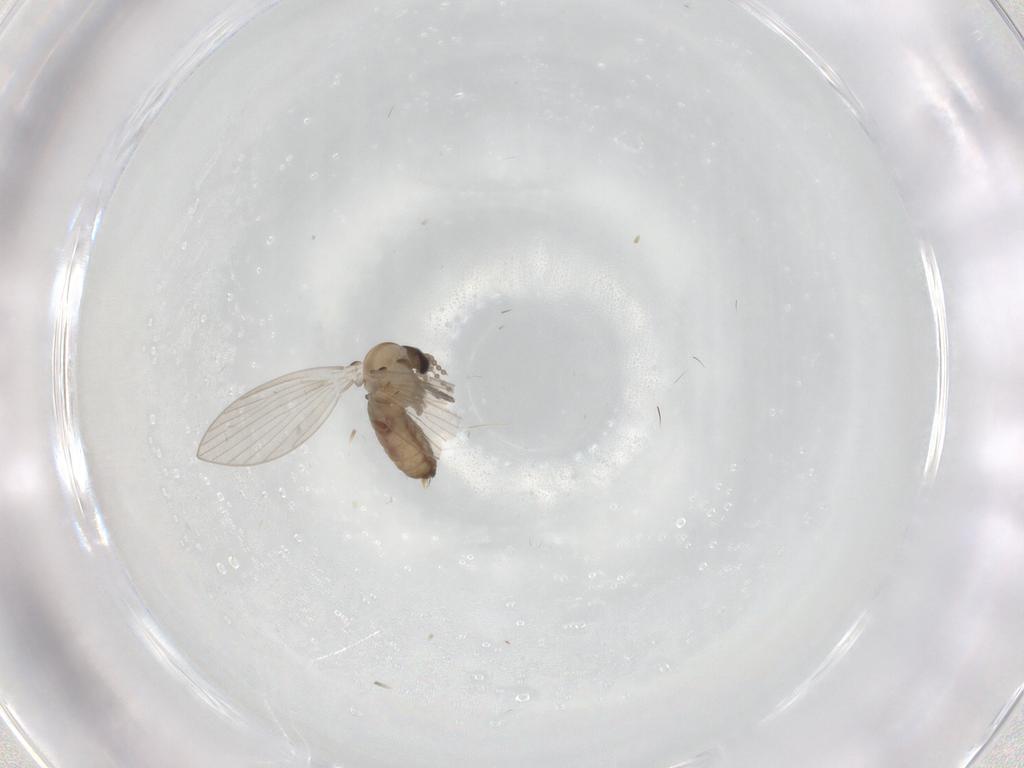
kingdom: Animalia
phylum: Arthropoda
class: Insecta
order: Diptera
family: Psychodidae
